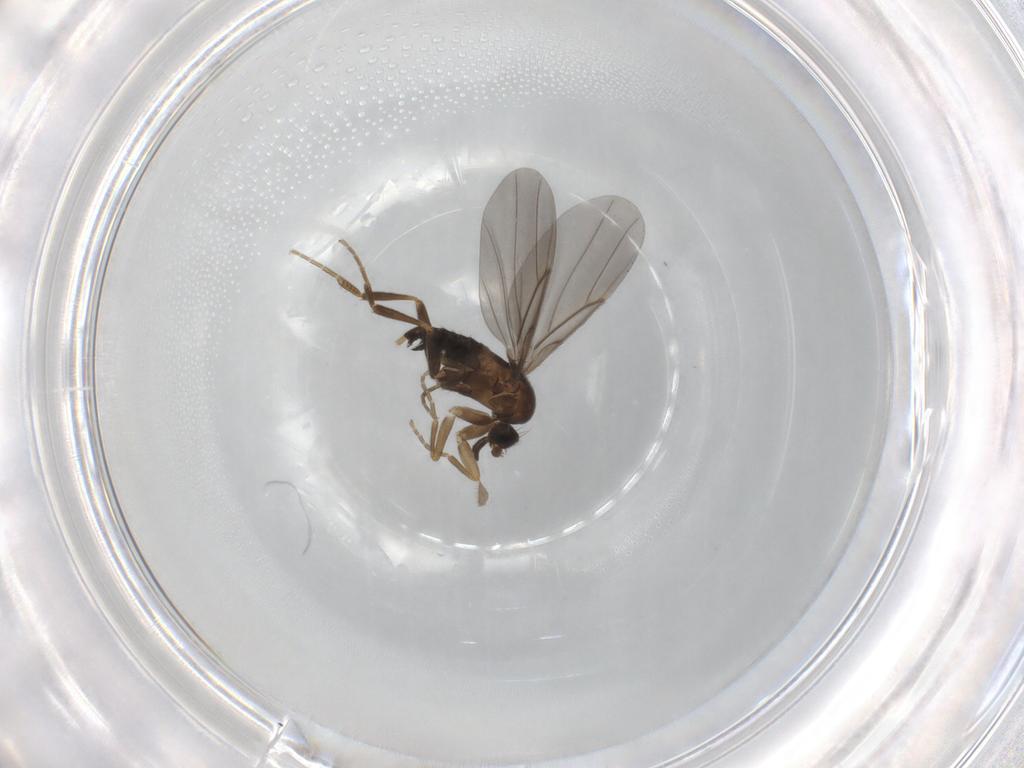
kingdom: Animalia
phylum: Arthropoda
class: Insecta
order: Diptera
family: Phoridae
